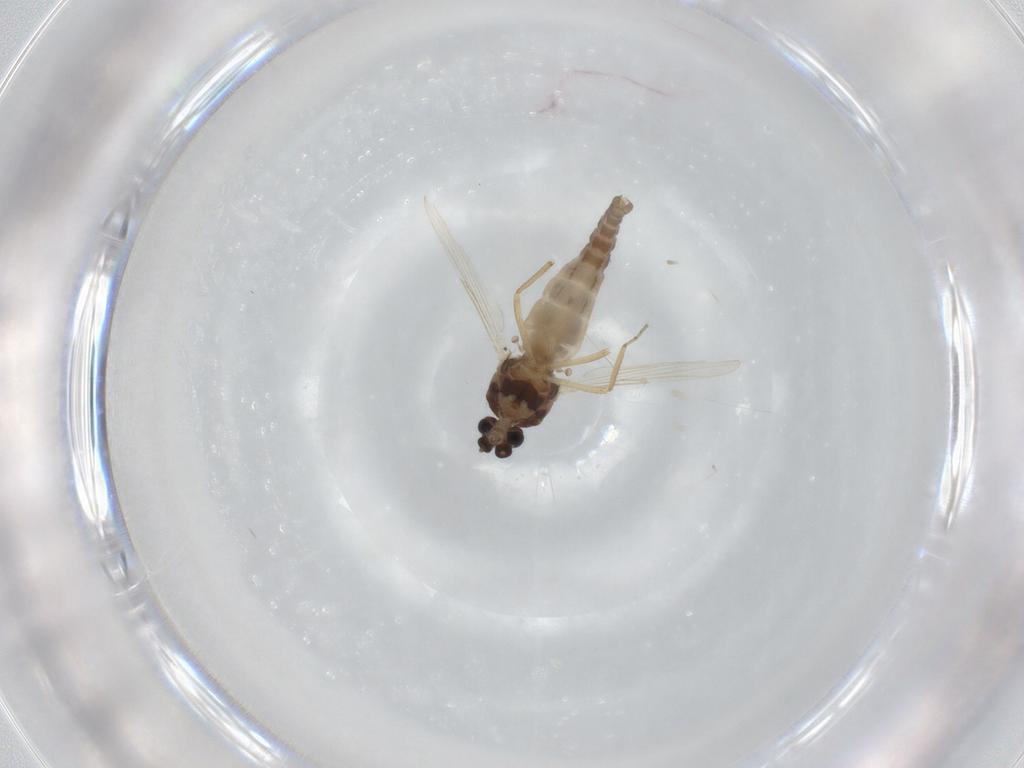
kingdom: Animalia
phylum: Arthropoda
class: Insecta
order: Diptera
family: Ceratopogonidae
